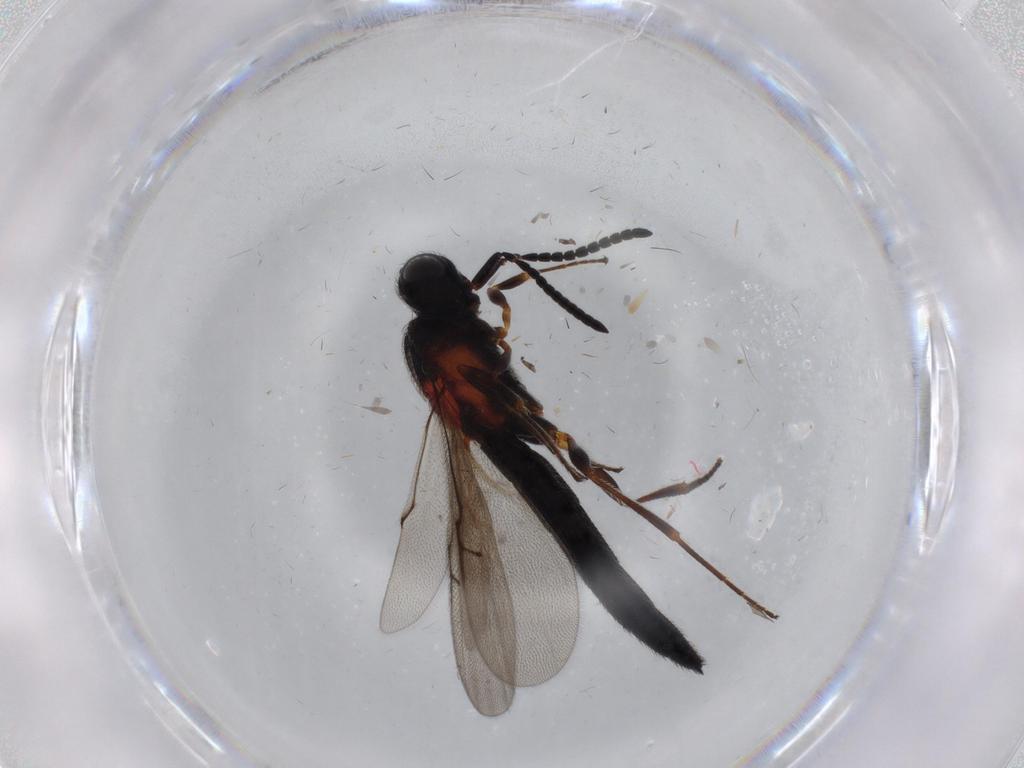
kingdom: Animalia
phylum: Arthropoda
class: Insecta
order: Hymenoptera
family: Scelionidae
